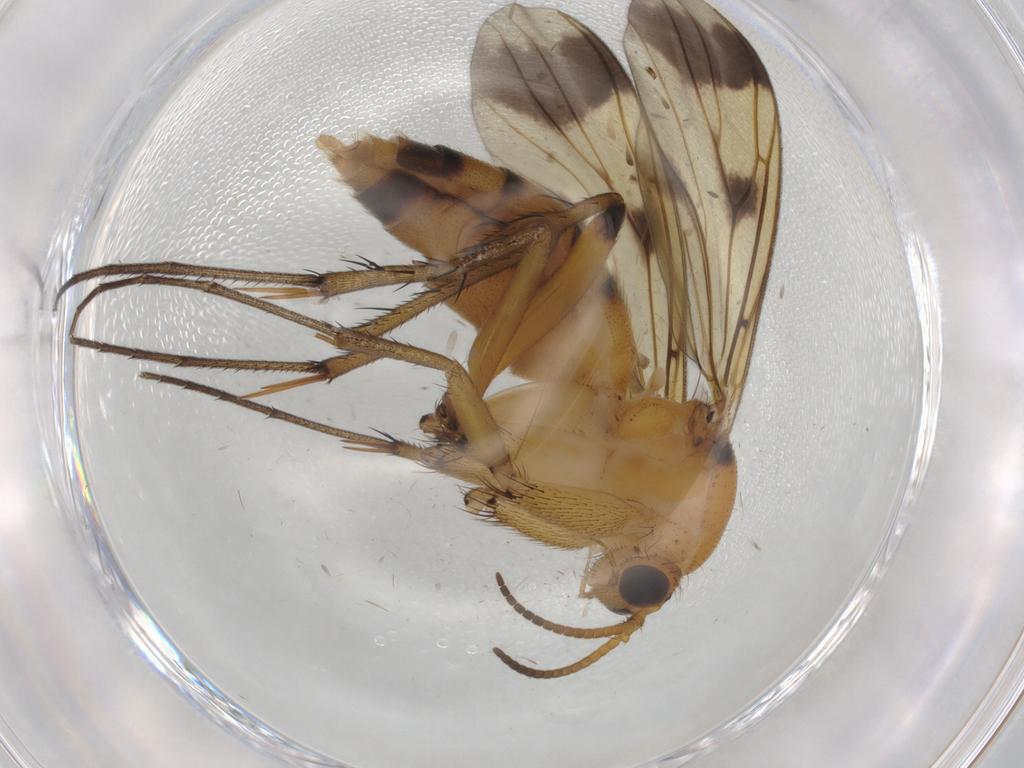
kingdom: Animalia
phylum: Arthropoda
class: Insecta
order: Diptera
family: Mycetophilidae
